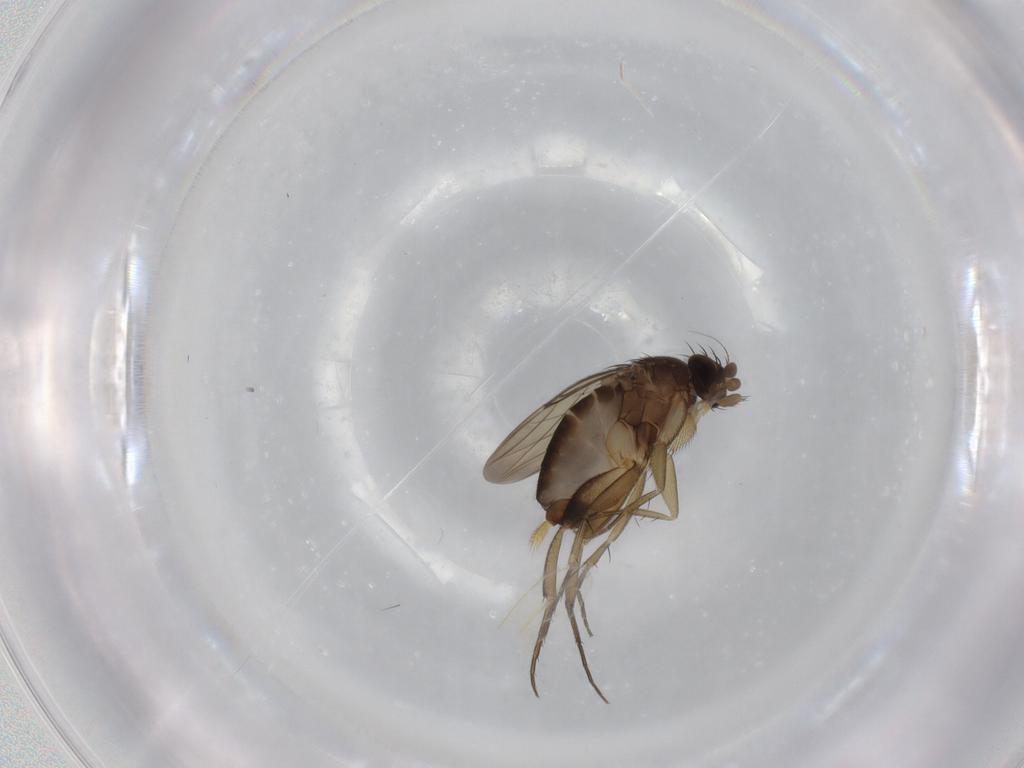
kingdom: Animalia
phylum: Arthropoda
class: Insecta
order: Diptera
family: Phoridae
